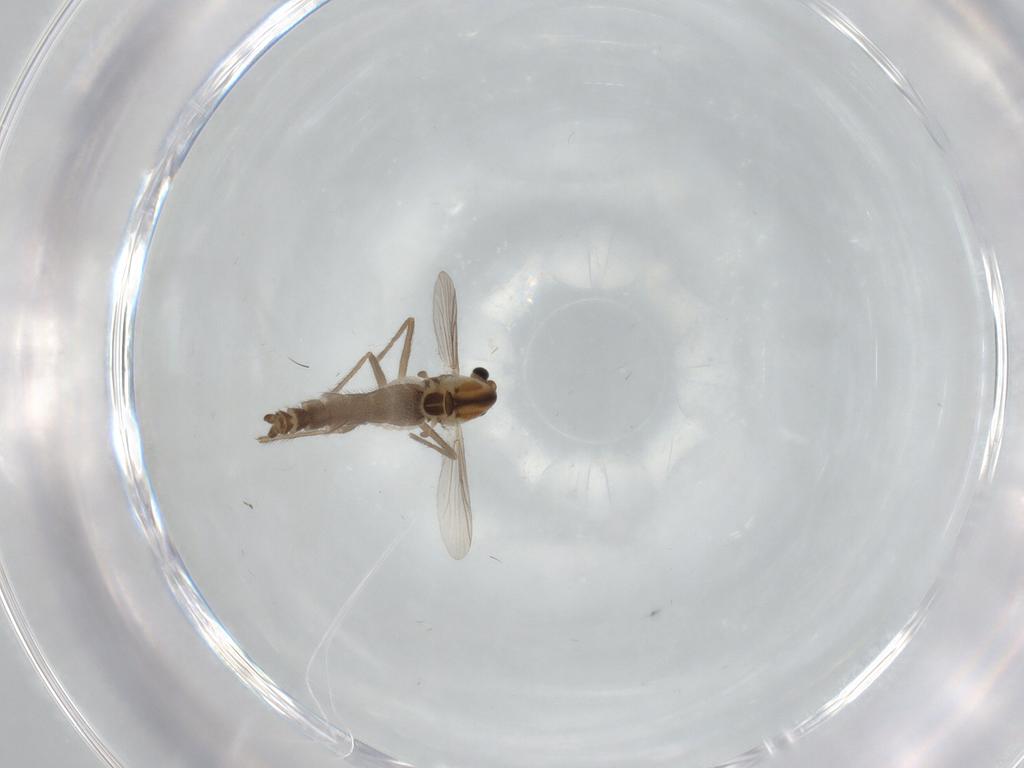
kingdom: Animalia
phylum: Arthropoda
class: Insecta
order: Diptera
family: Chironomidae
